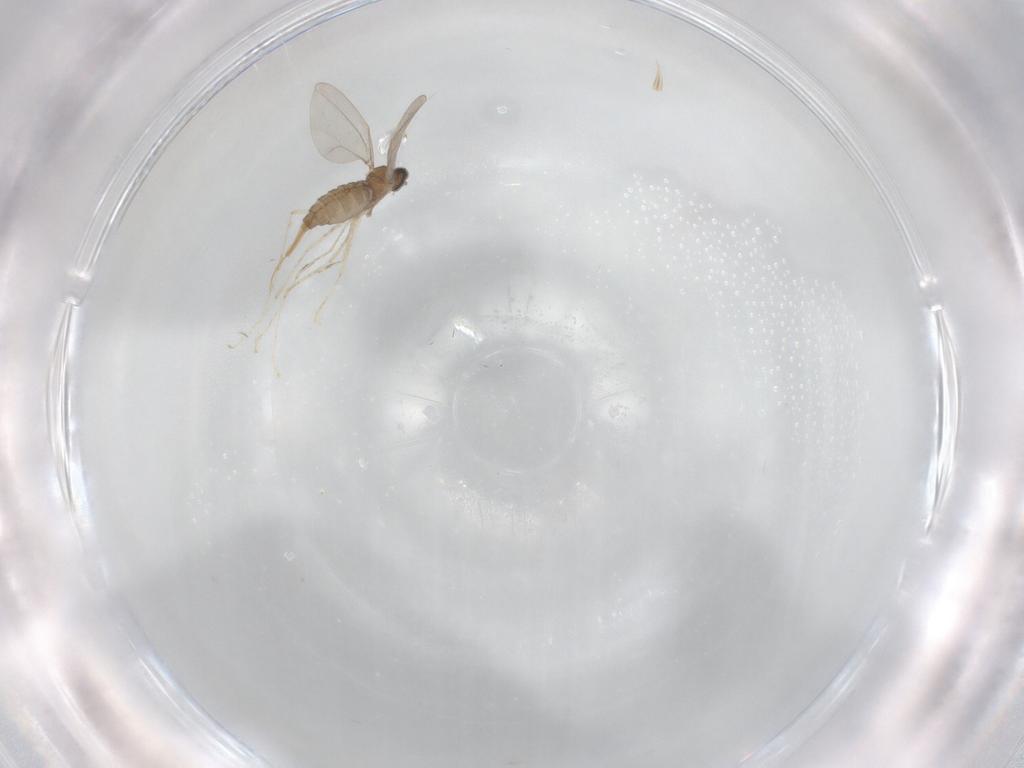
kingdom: Animalia
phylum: Arthropoda
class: Insecta
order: Diptera
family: Cecidomyiidae
